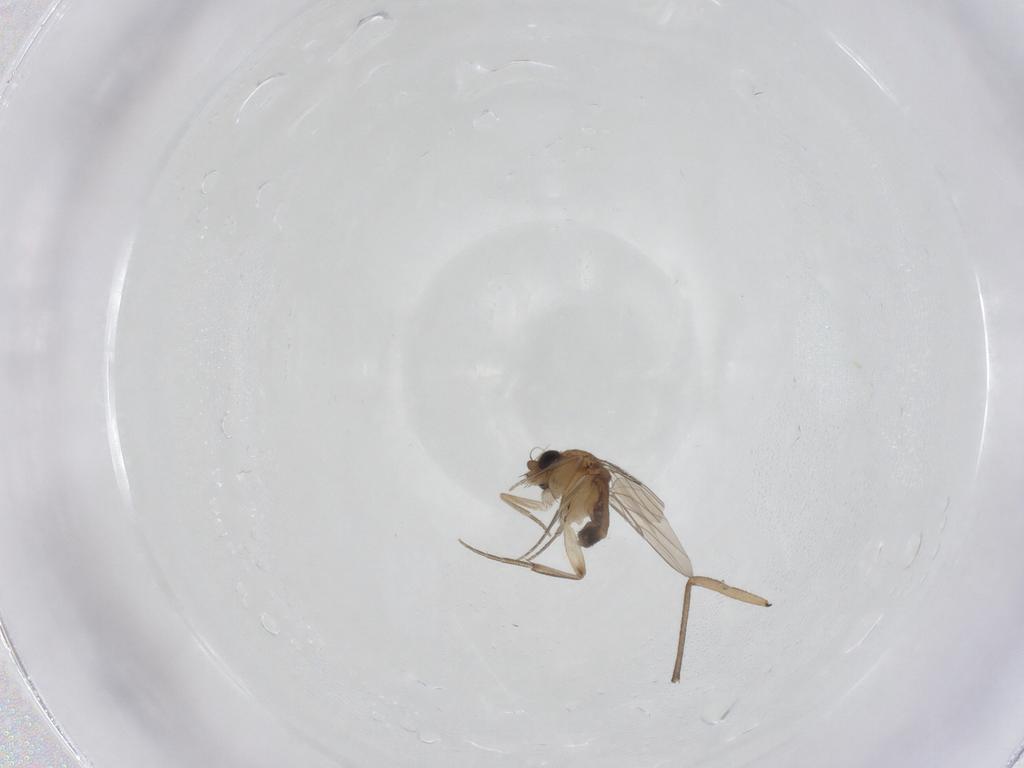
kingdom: Animalia
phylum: Arthropoda
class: Insecta
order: Diptera
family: Phoridae
